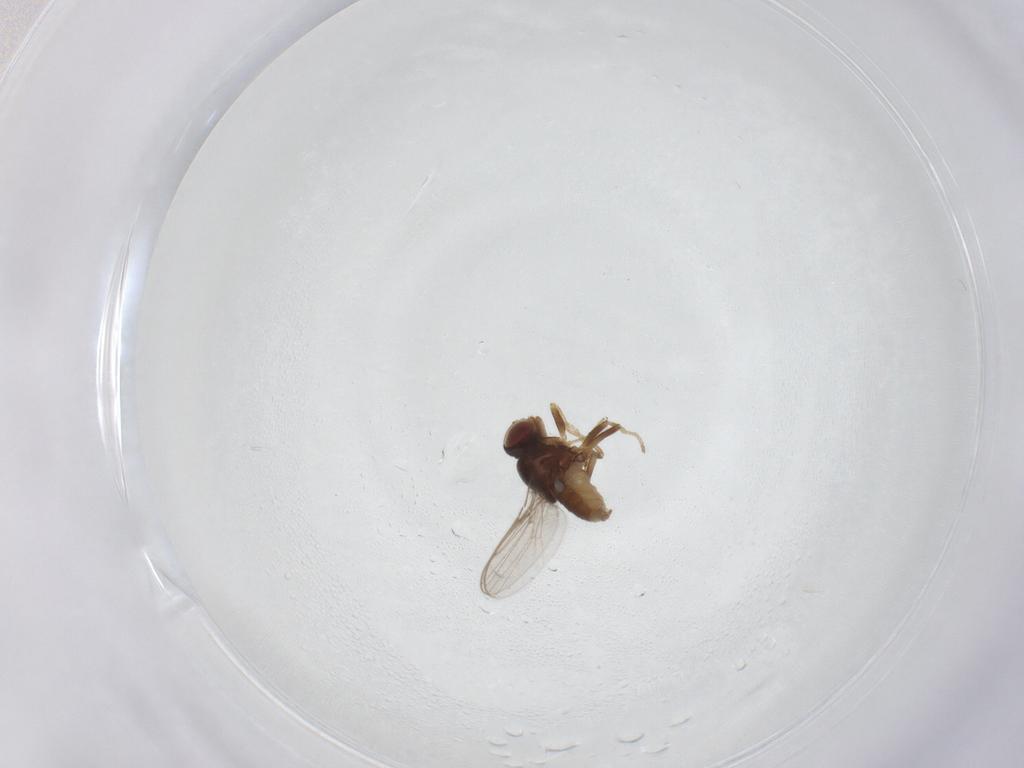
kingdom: Animalia
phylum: Arthropoda
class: Insecta
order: Diptera
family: Chloropidae
